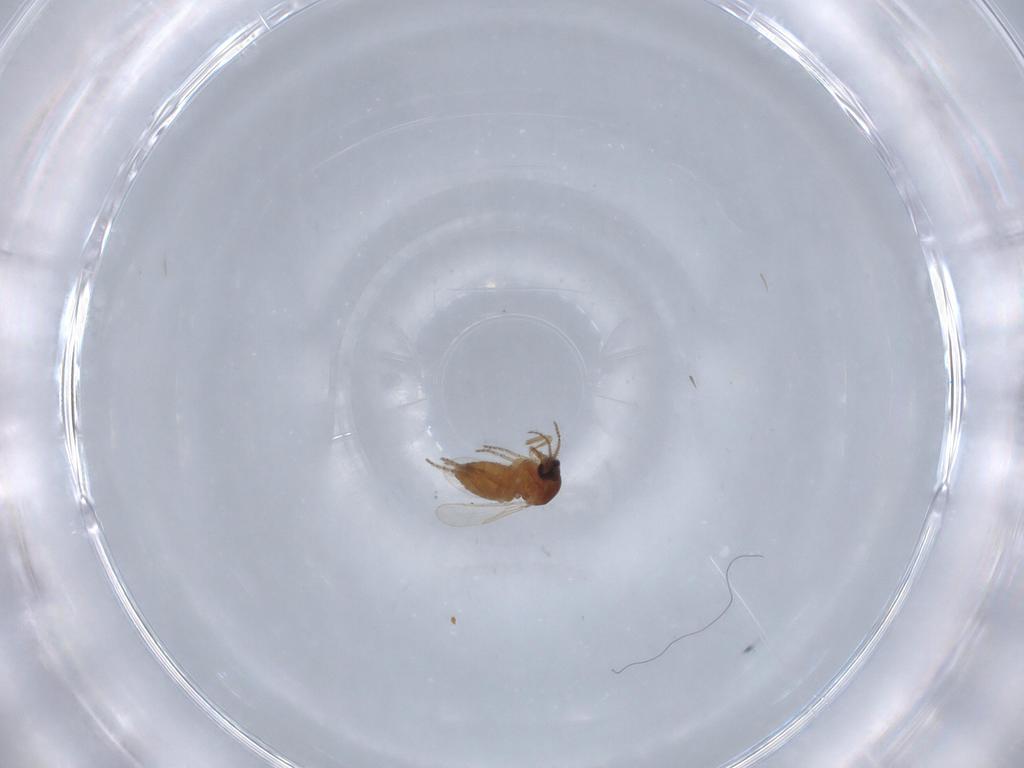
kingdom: Animalia
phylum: Arthropoda
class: Insecta
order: Diptera
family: Ceratopogonidae
